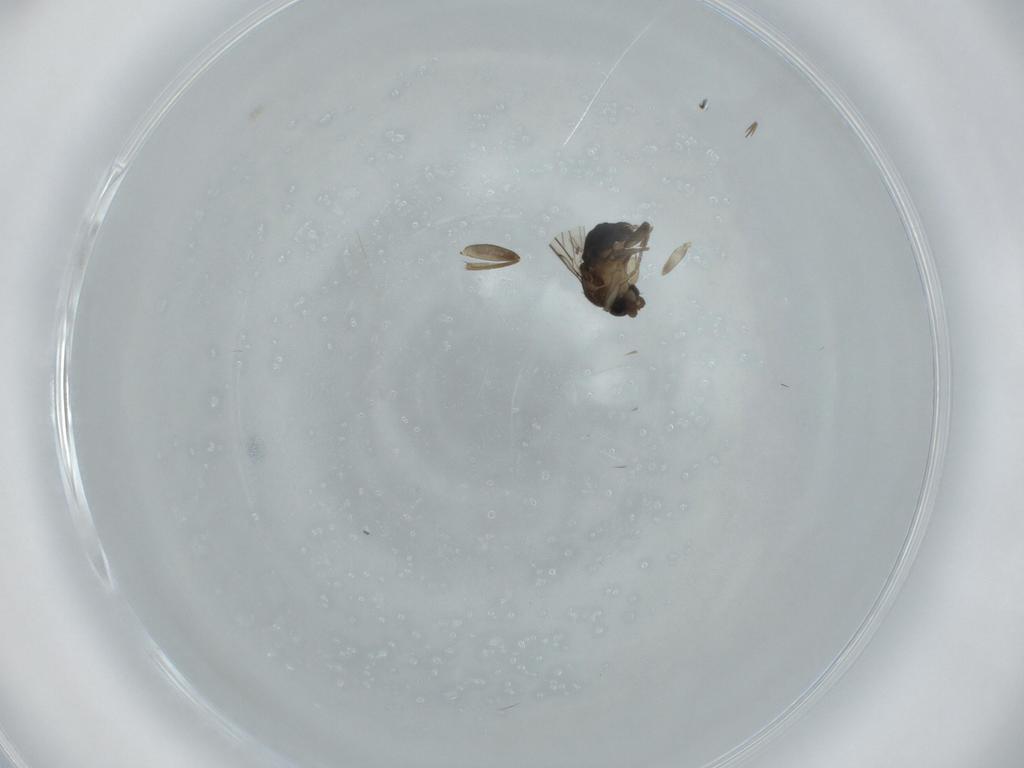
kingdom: Animalia
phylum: Arthropoda
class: Insecta
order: Diptera
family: Phoridae
